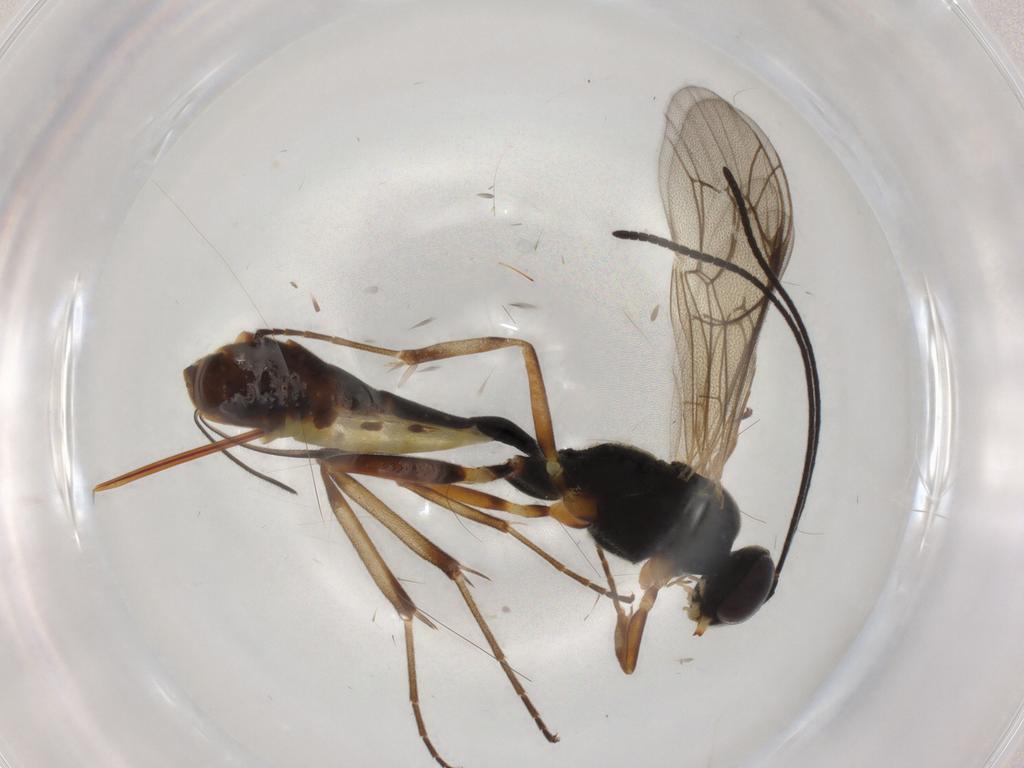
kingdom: Animalia
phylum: Arthropoda
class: Insecta
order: Hymenoptera
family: Ichneumonidae
